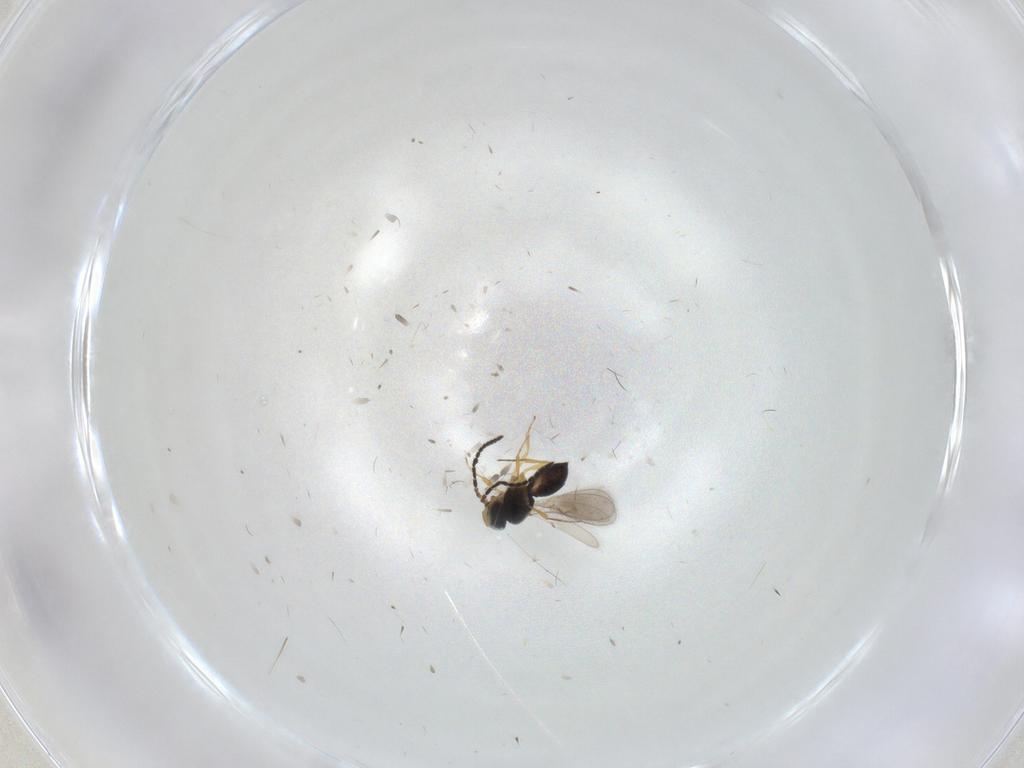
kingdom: Animalia
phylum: Arthropoda
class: Insecta
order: Hymenoptera
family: Scelionidae
